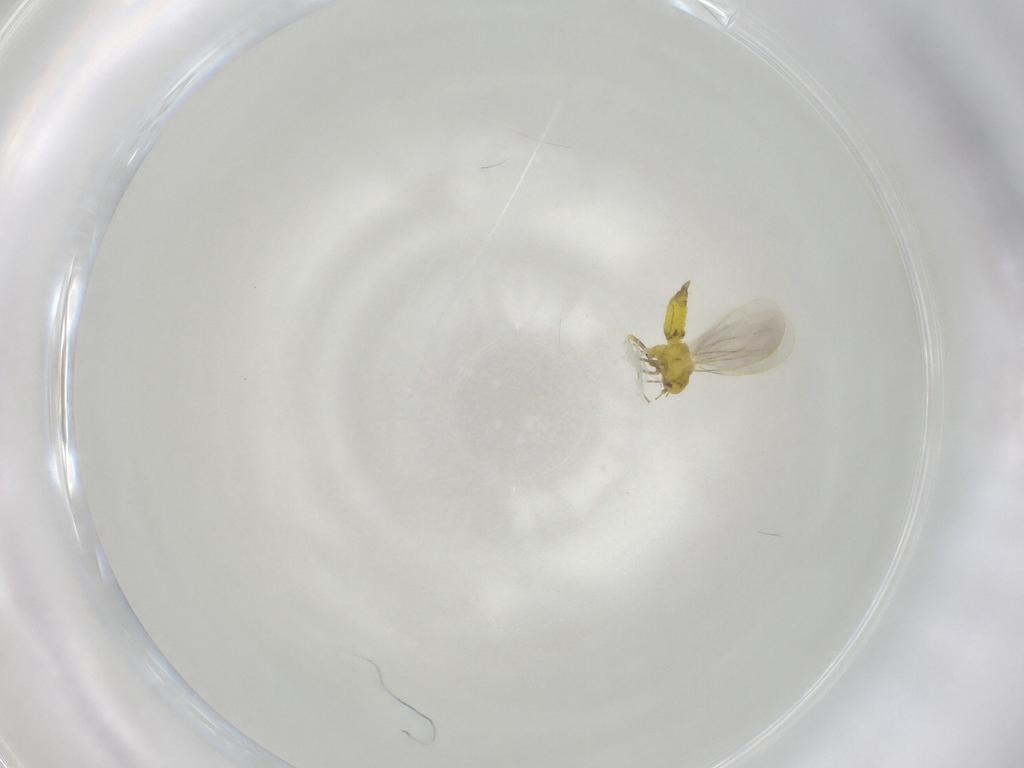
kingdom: Animalia
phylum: Arthropoda
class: Insecta
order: Hemiptera
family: Aleyrodidae
